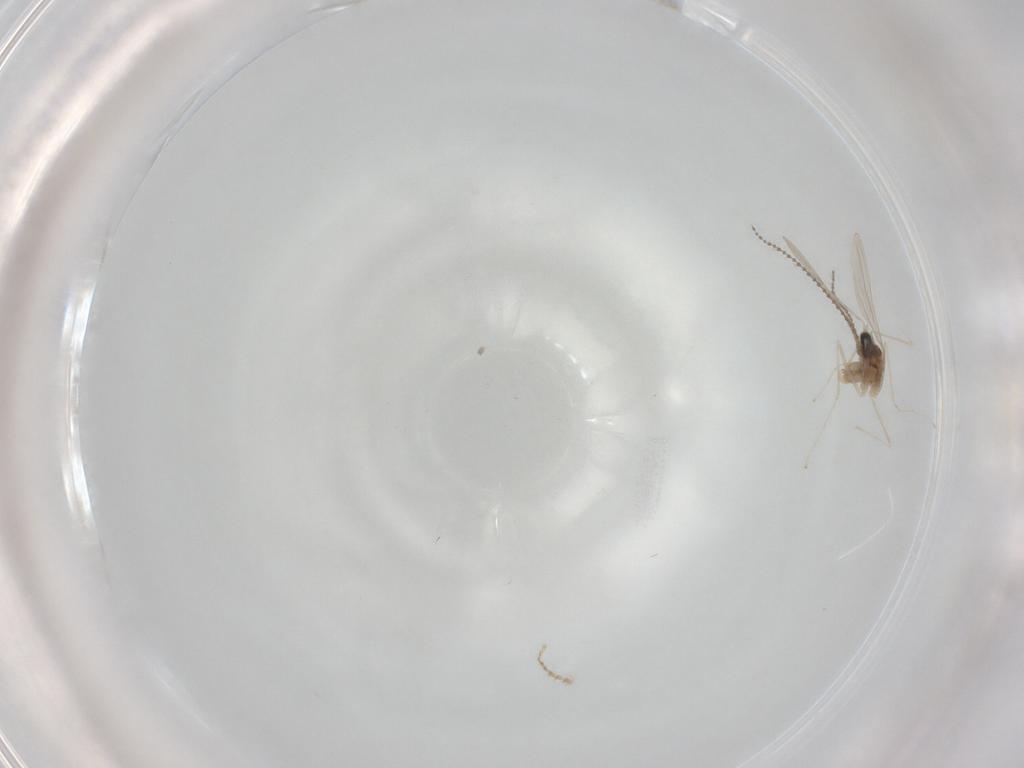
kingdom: Animalia
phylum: Arthropoda
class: Insecta
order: Diptera
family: Cecidomyiidae
